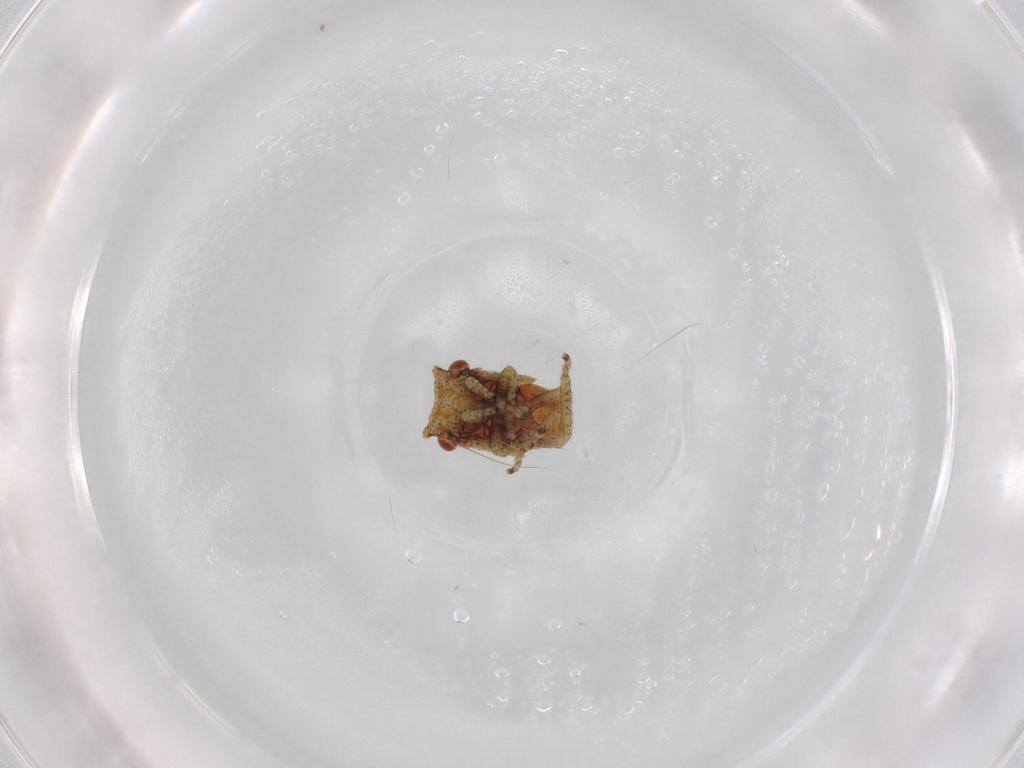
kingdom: Animalia
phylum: Arthropoda
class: Insecta
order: Hemiptera
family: Cicadellidae
